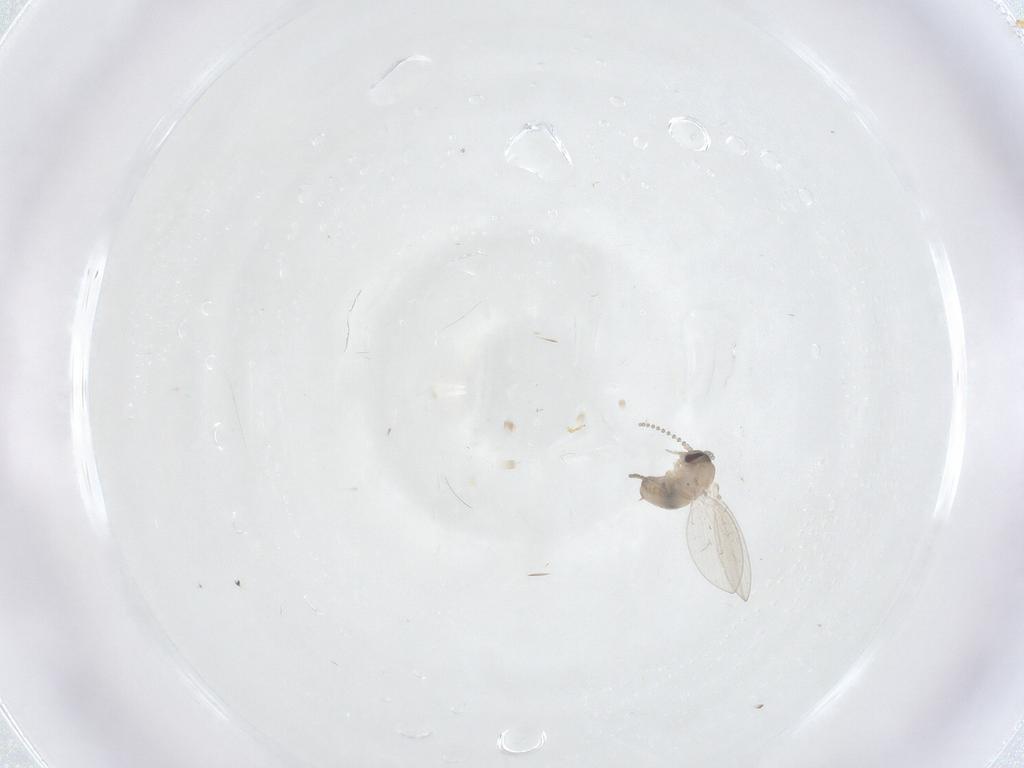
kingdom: Animalia
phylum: Arthropoda
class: Insecta
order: Diptera
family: Psychodidae
